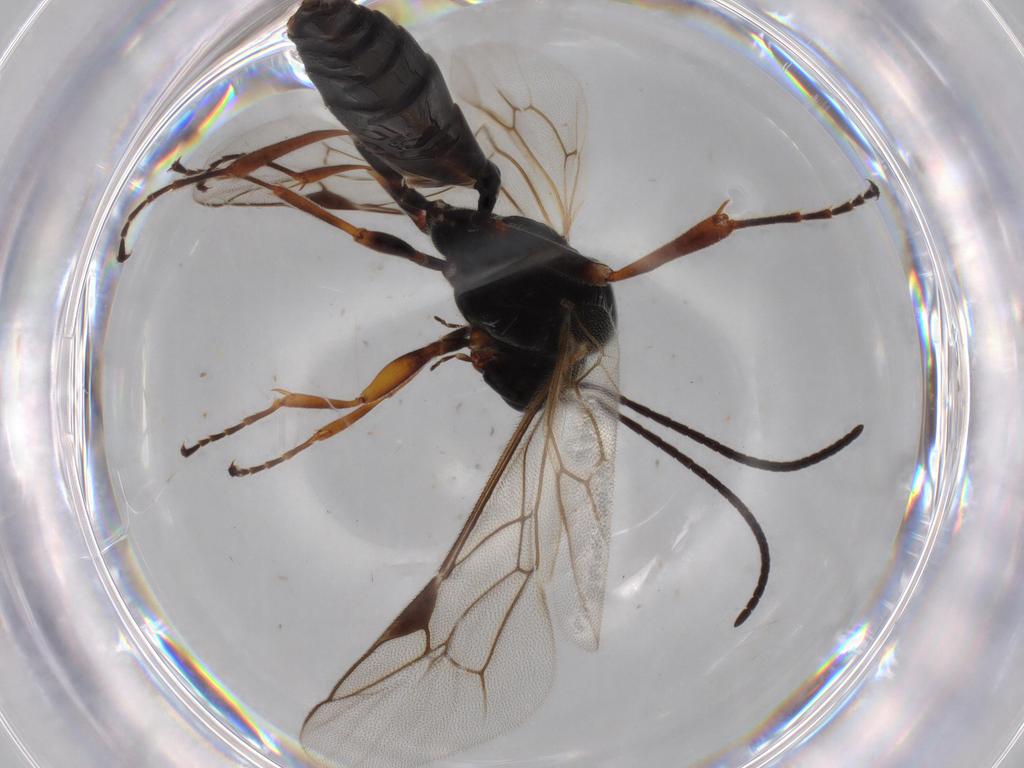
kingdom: Animalia
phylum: Arthropoda
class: Insecta
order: Hymenoptera
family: Ichneumonidae
